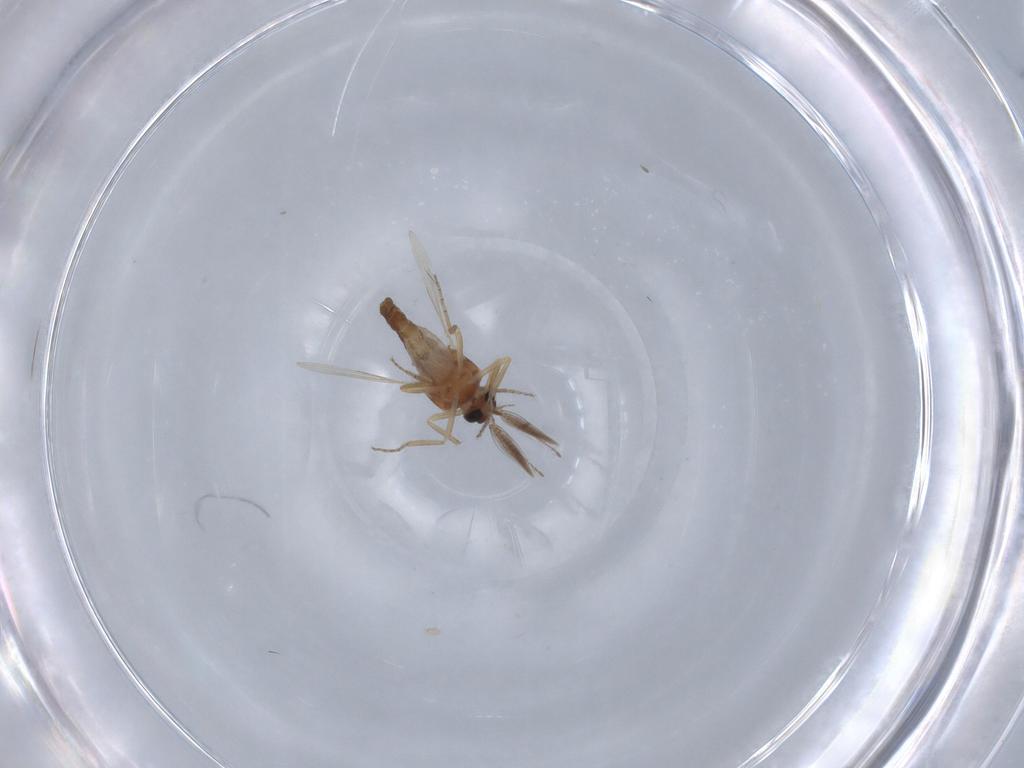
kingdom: Animalia
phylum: Arthropoda
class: Insecta
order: Diptera
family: Ceratopogonidae
